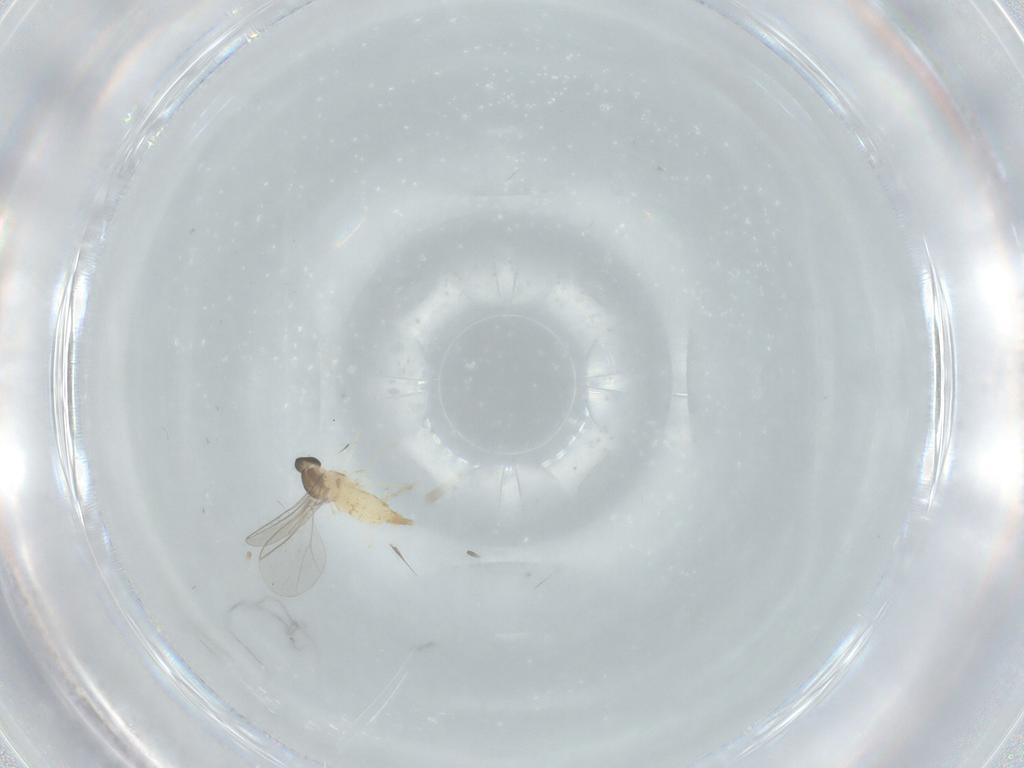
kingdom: Animalia
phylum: Arthropoda
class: Insecta
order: Diptera
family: Cecidomyiidae
